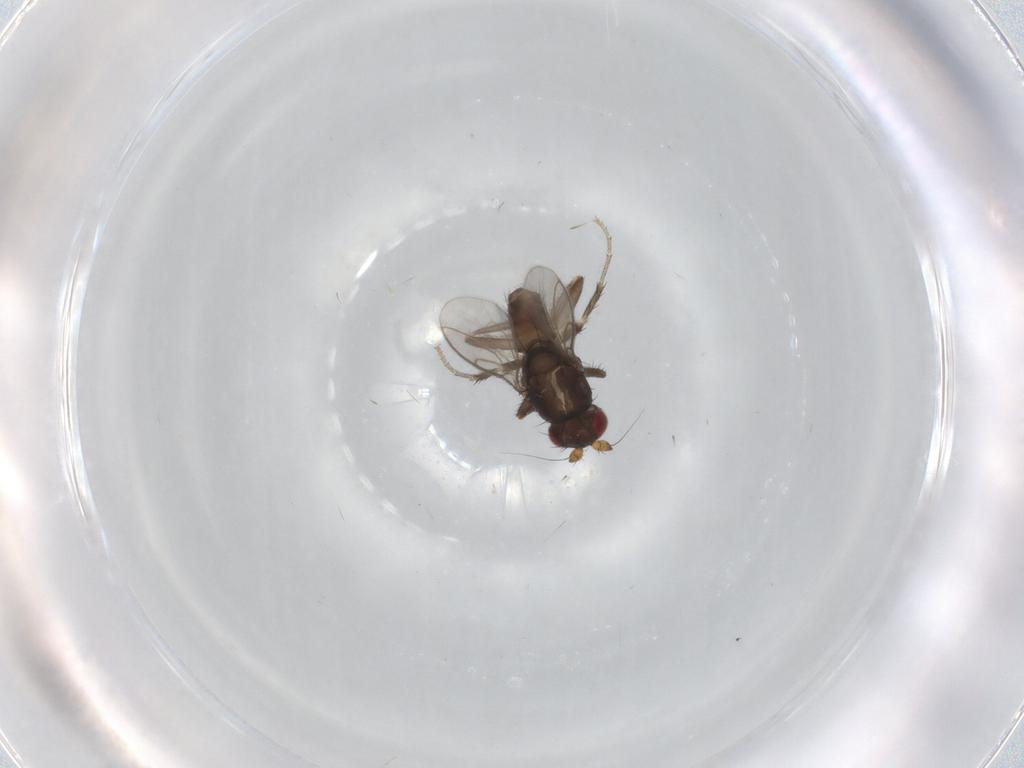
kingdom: Animalia
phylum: Arthropoda
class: Insecta
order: Diptera
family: Sphaeroceridae
